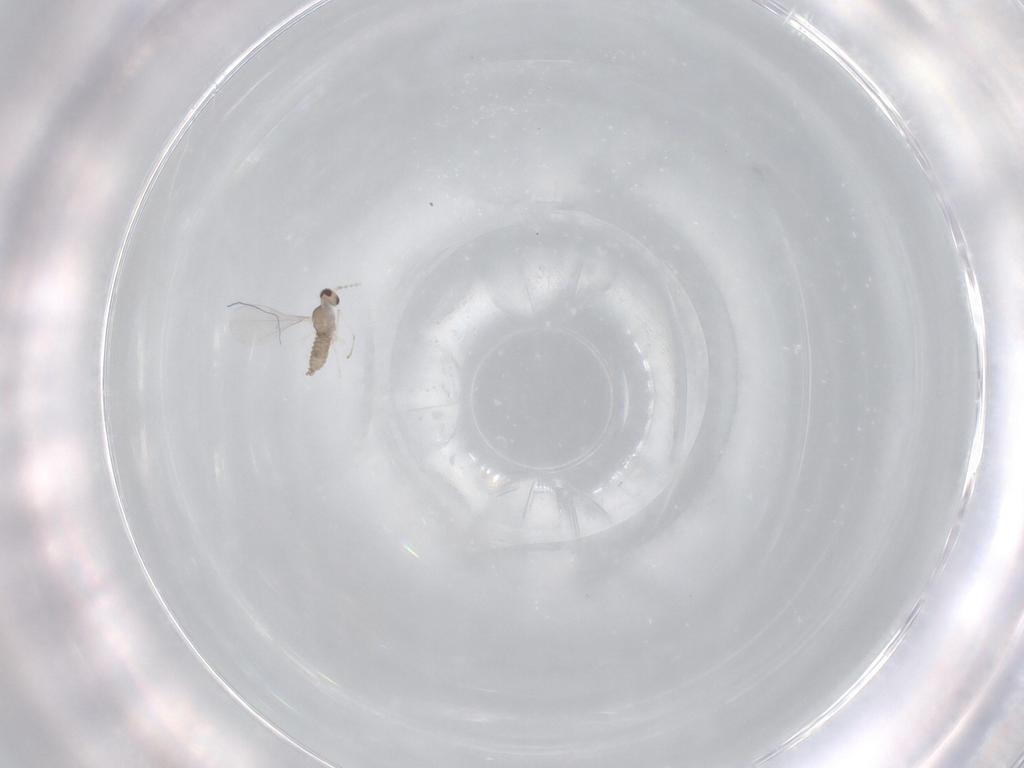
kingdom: Animalia
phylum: Arthropoda
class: Insecta
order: Diptera
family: Cecidomyiidae
